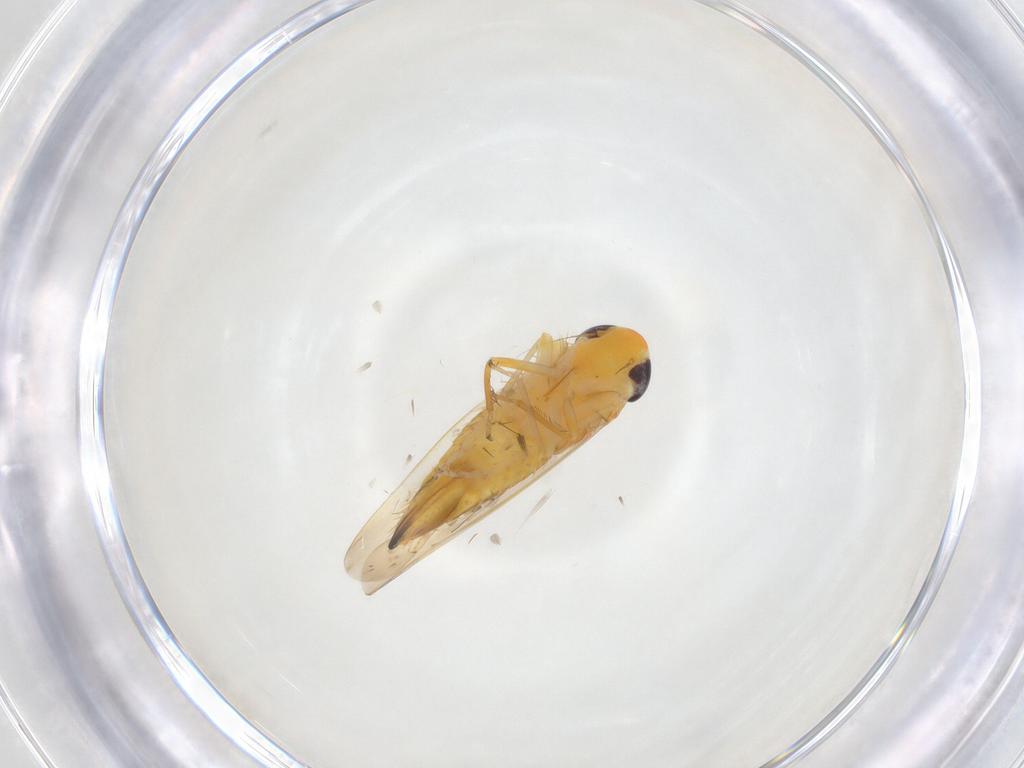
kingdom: Animalia
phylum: Arthropoda
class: Insecta
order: Hemiptera
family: Cicadellidae
